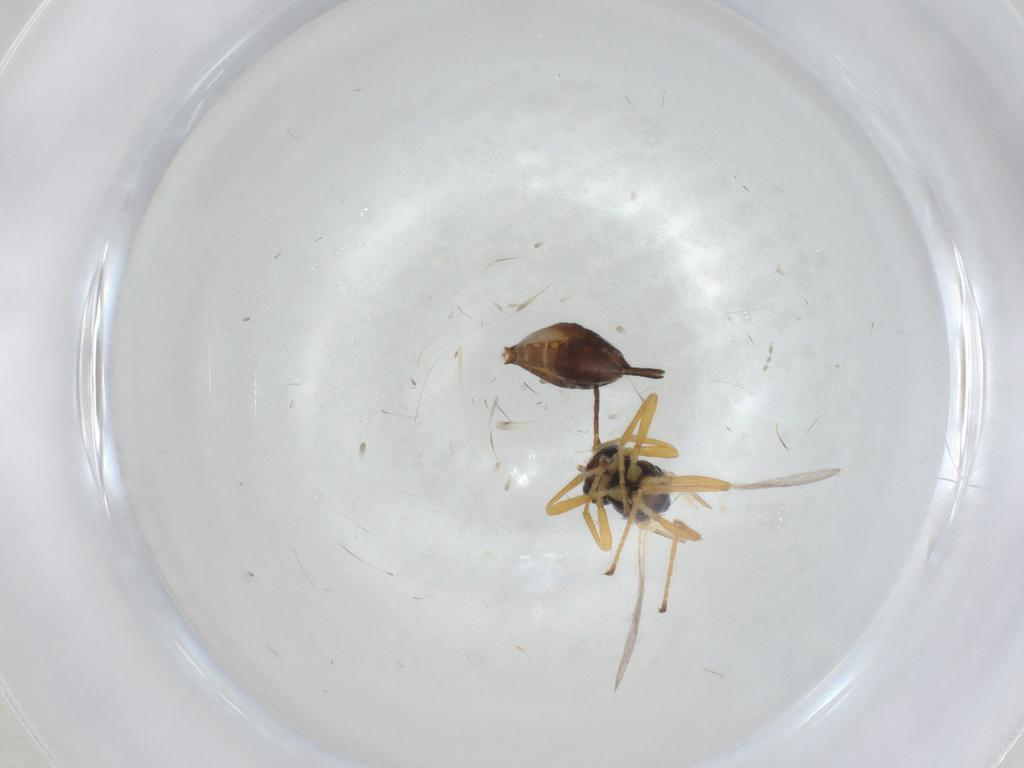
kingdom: Animalia
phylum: Arthropoda
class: Insecta
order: Hymenoptera
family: Braconidae
